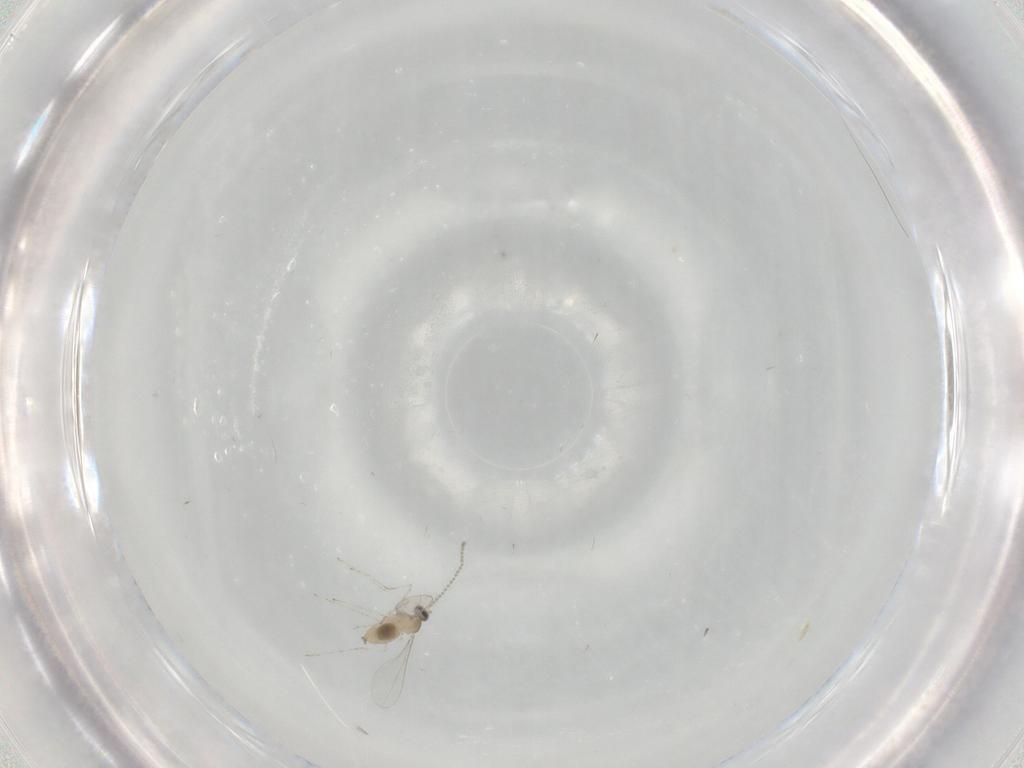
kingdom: Animalia
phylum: Arthropoda
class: Insecta
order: Diptera
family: Cecidomyiidae
